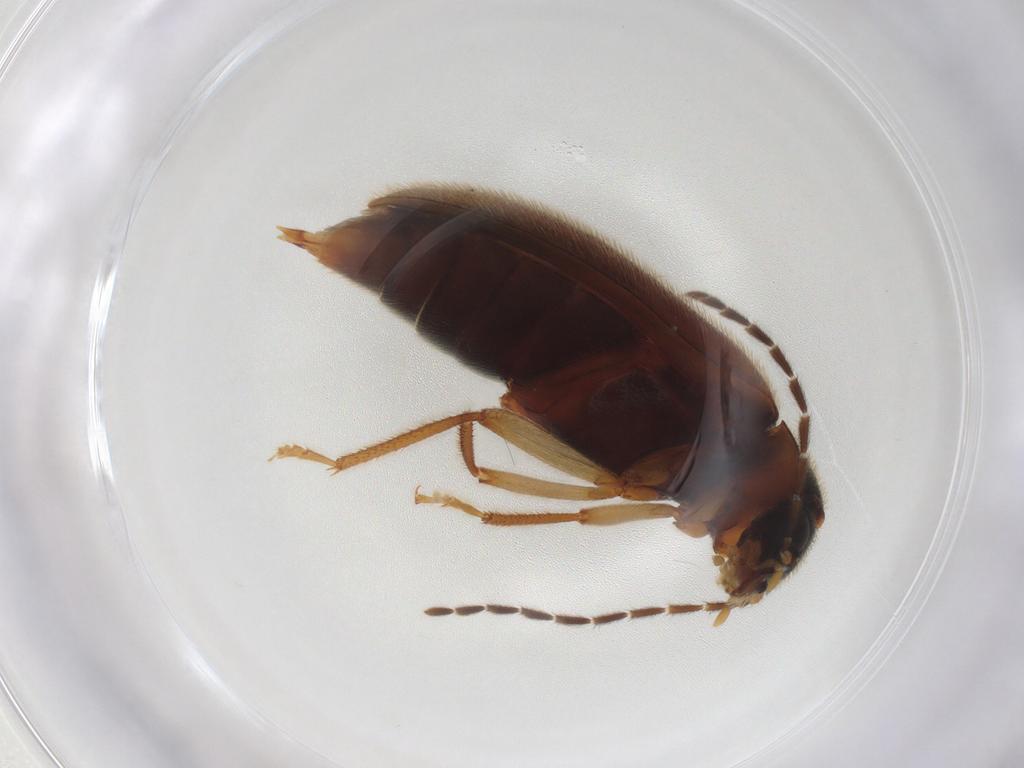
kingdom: Animalia
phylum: Arthropoda
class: Insecta
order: Coleoptera
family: Ptilodactylidae
